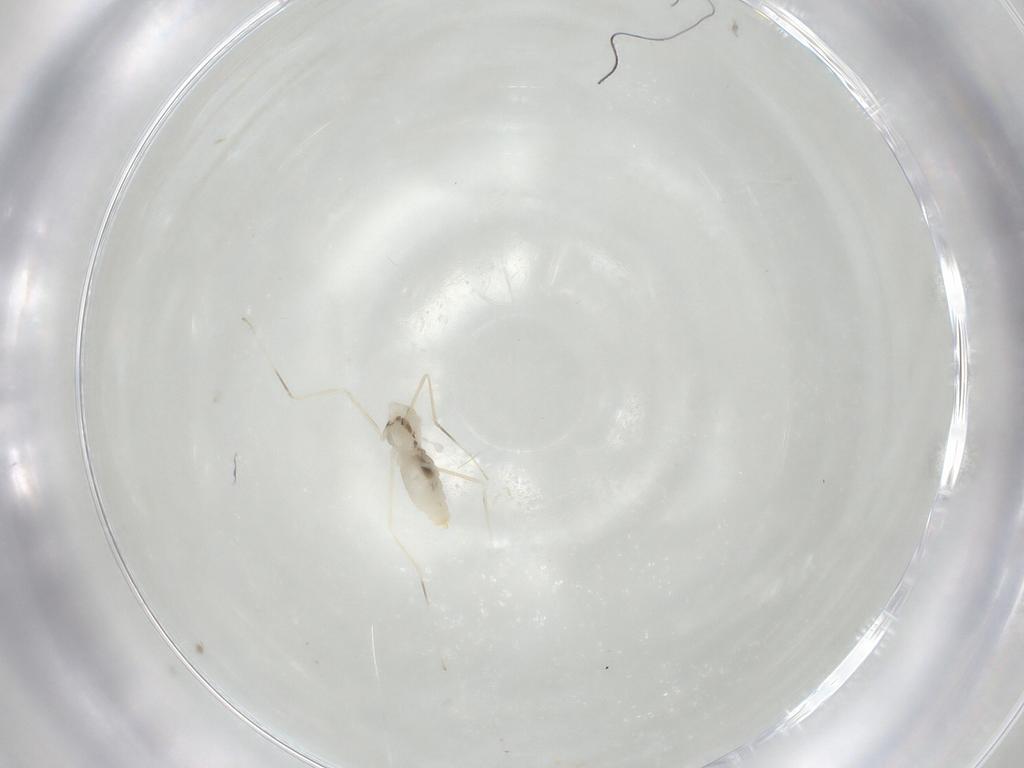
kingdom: Animalia
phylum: Arthropoda
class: Insecta
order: Diptera
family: Cecidomyiidae
